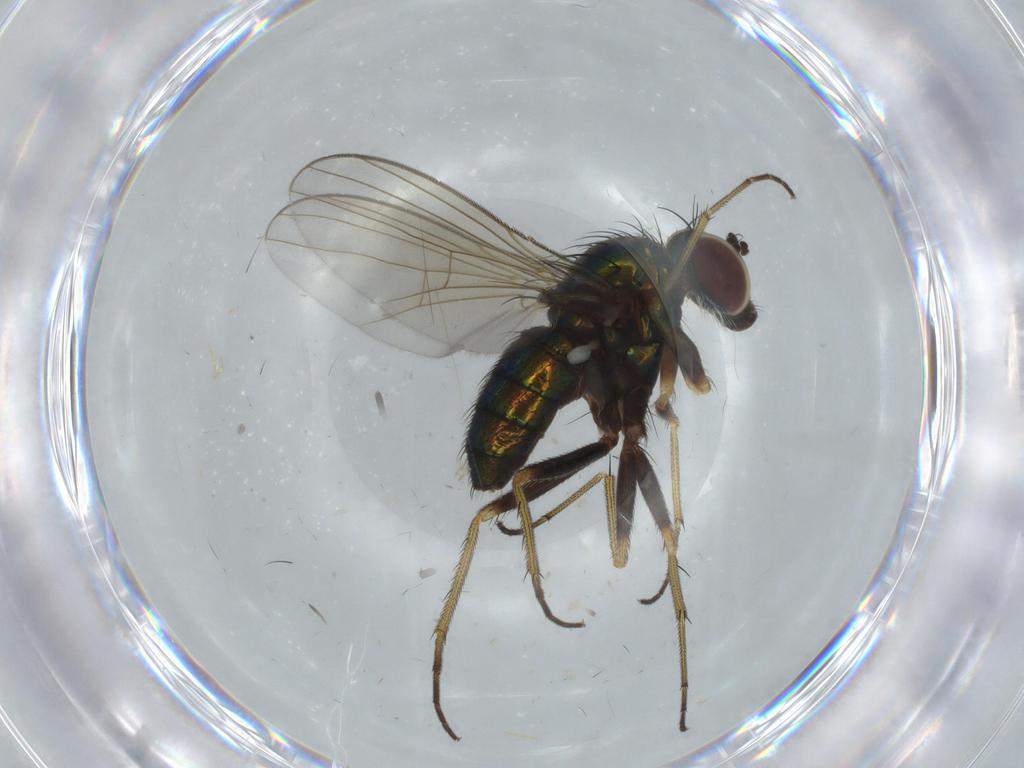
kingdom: Animalia
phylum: Arthropoda
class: Insecta
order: Diptera
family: Dolichopodidae
